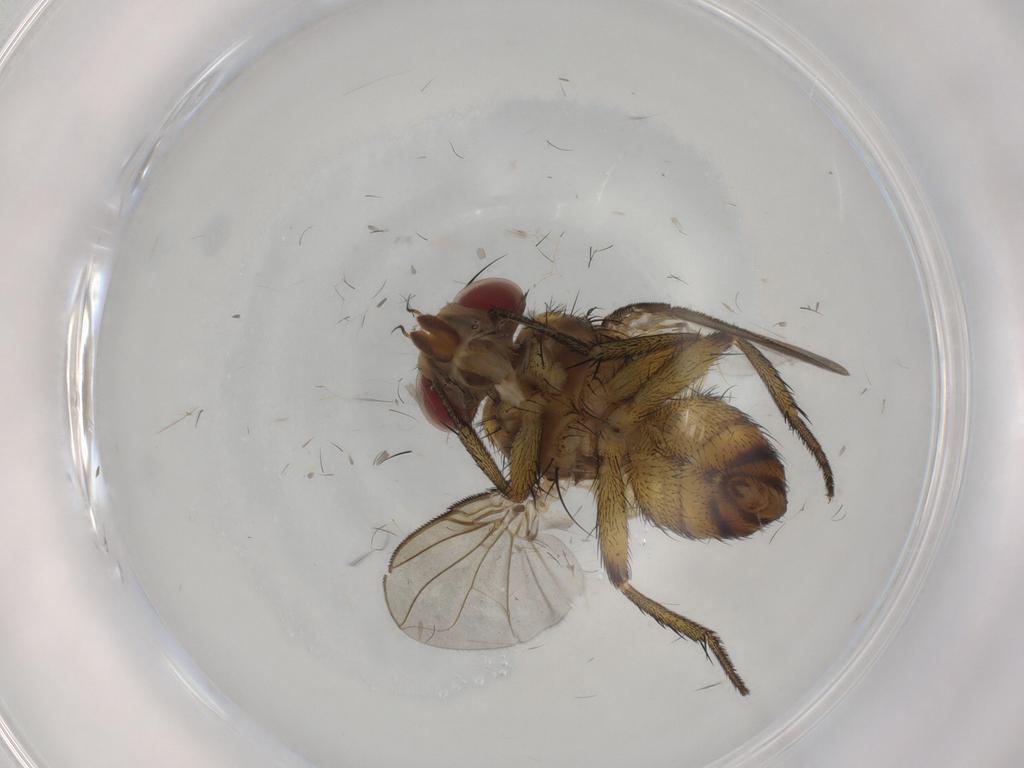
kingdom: Animalia
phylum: Arthropoda
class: Insecta
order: Diptera
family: Tachinidae
